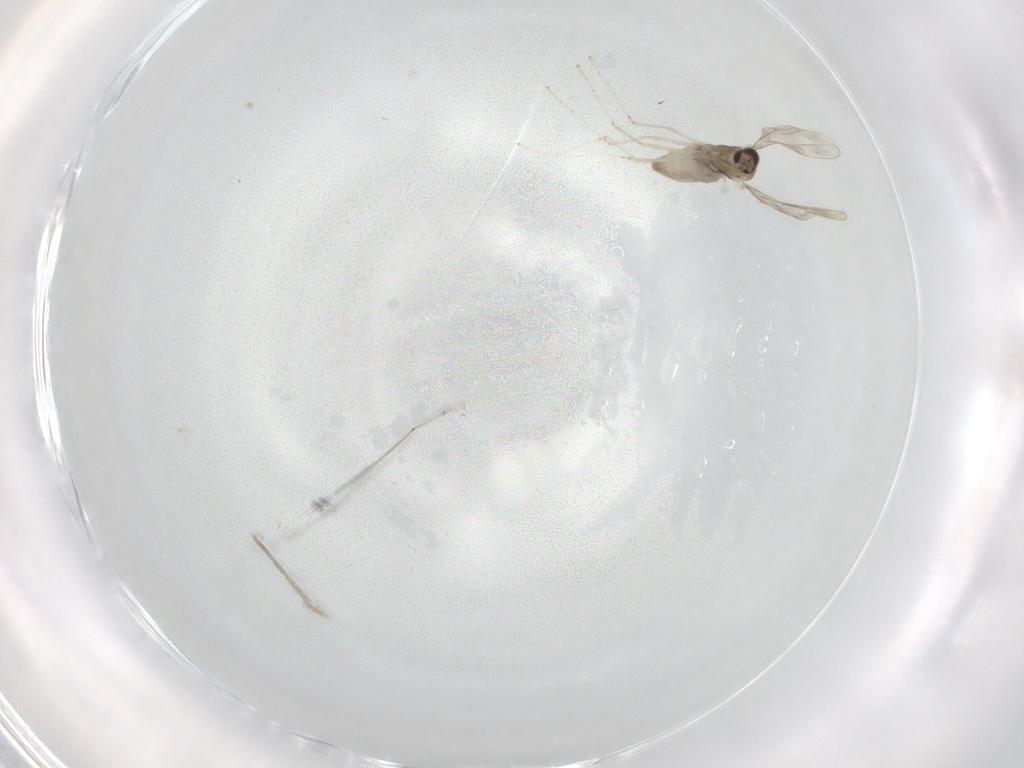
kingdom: Animalia
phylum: Arthropoda
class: Insecta
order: Diptera
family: Cecidomyiidae
